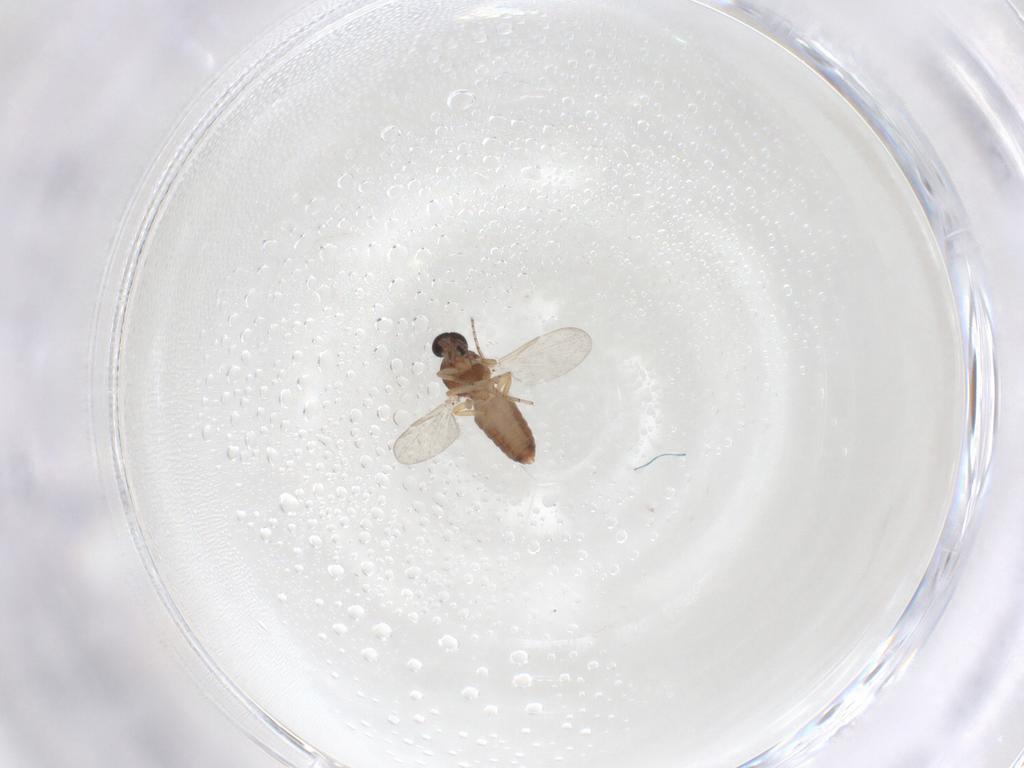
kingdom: Animalia
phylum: Arthropoda
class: Insecta
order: Diptera
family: Ceratopogonidae
